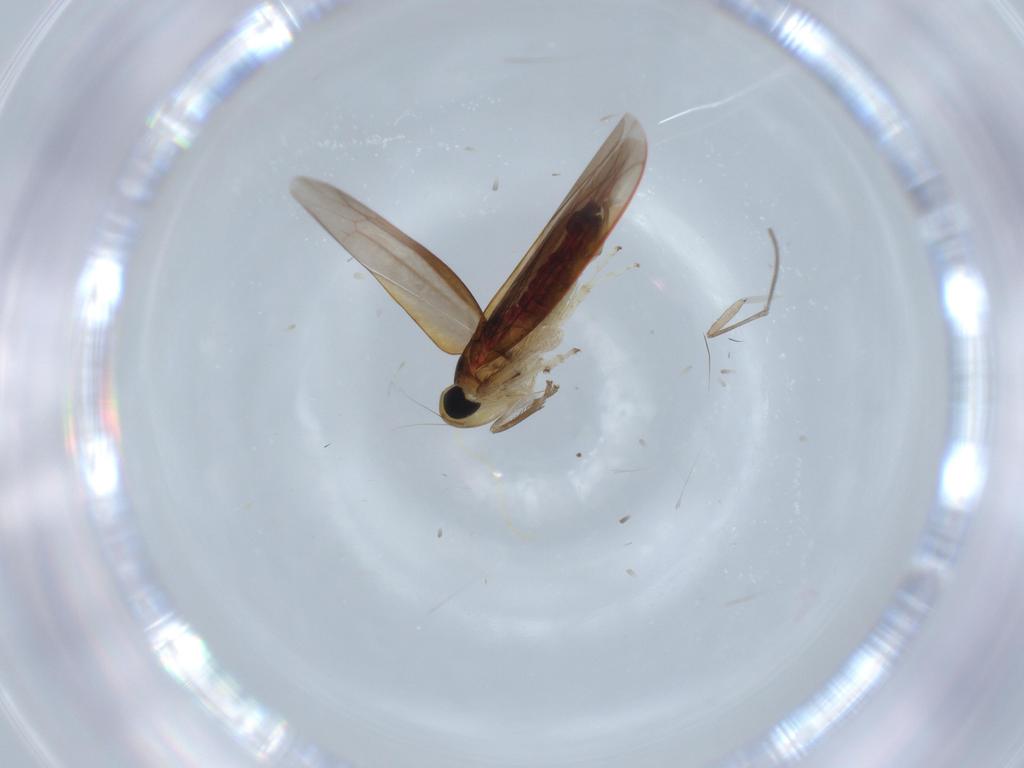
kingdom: Animalia
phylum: Arthropoda
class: Insecta
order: Hemiptera
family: Cicadellidae
